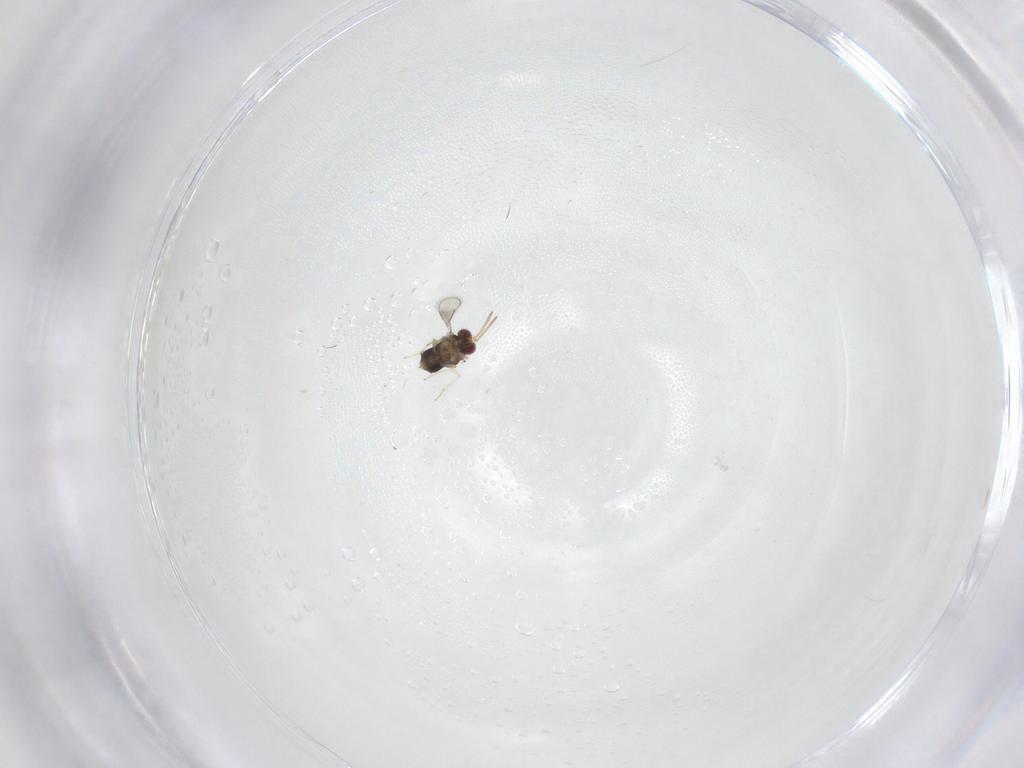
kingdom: Animalia
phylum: Arthropoda
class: Insecta
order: Hymenoptera
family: Aphelinidae
